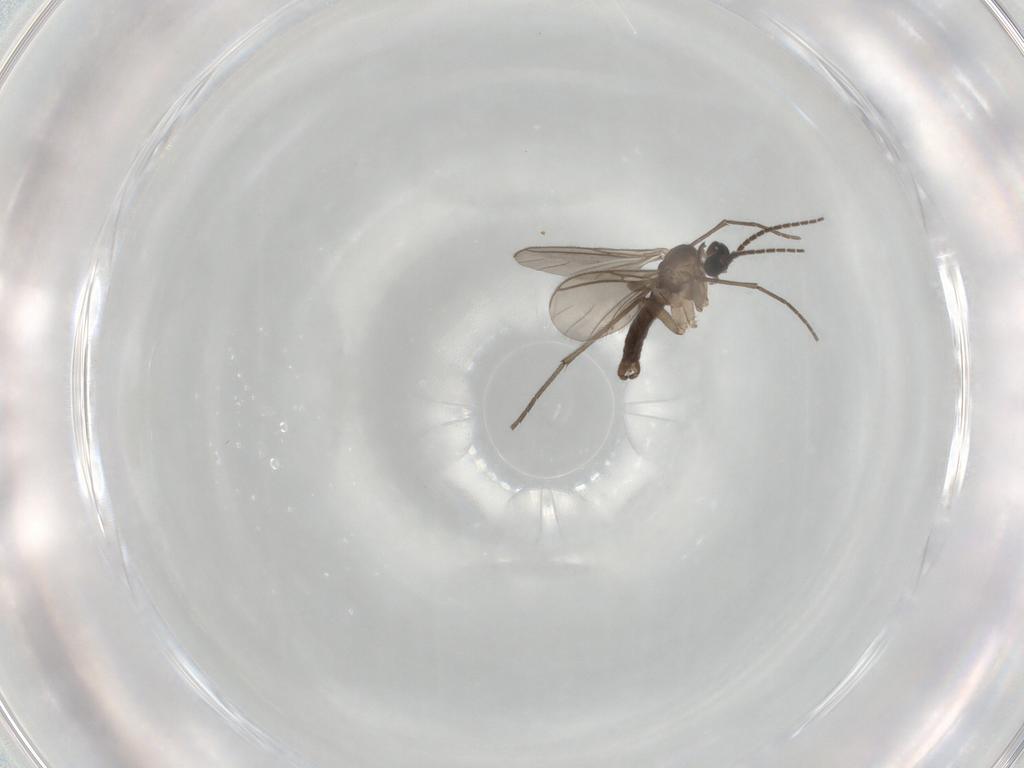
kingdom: Animalia
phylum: Arthropoda
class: Insecta
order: Diptera
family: Sciaridae
